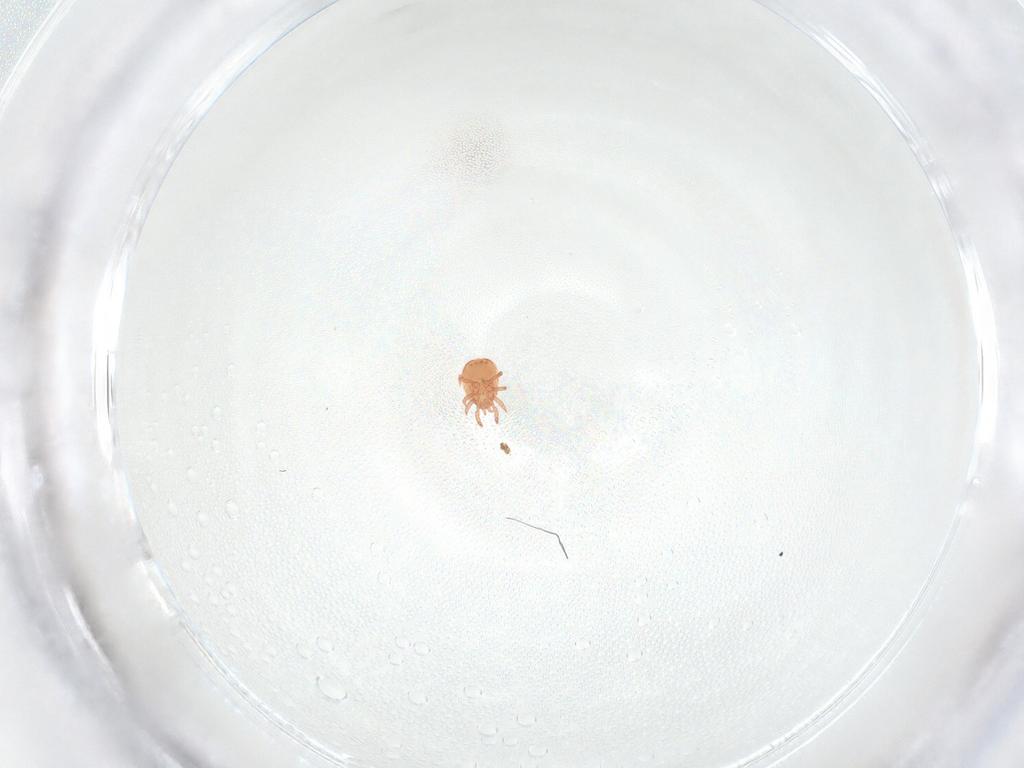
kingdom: Animalia
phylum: Arthropoda
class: Arachnida
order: Mesostigmata
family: Zerconidae
